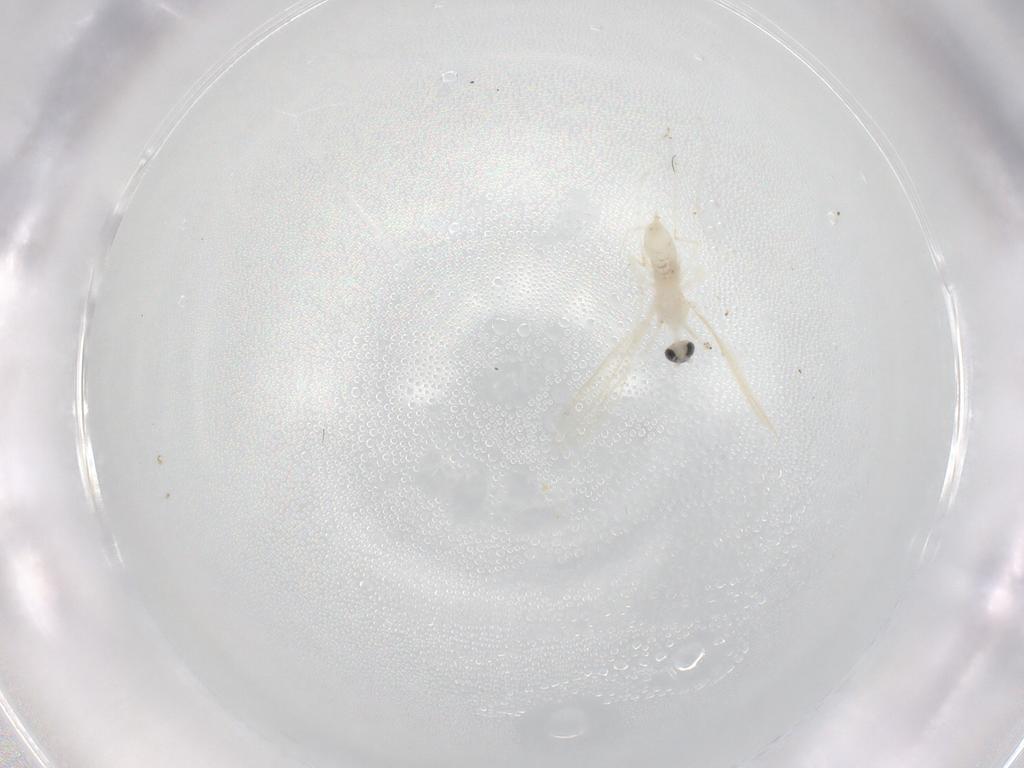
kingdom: Animalia
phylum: Arthropoda
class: Insecta
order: Diptera
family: Cecidomyiidae
